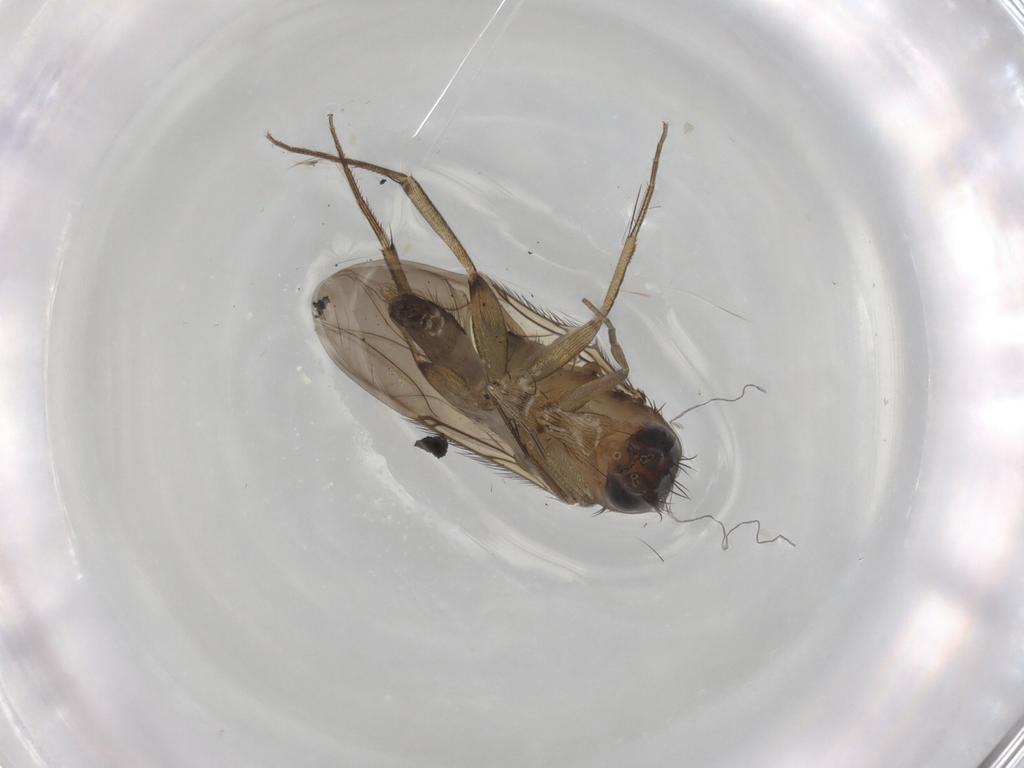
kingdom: Animalia
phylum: Arthropoda
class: Insecta
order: Diptera
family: Phoridae
